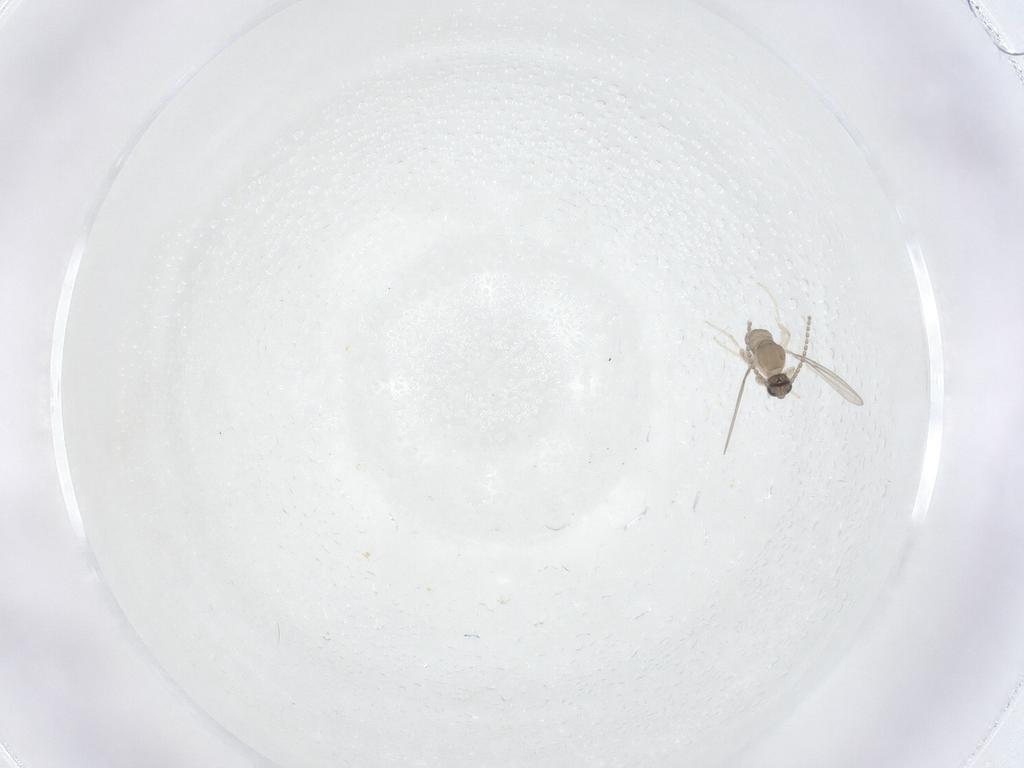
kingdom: Animalia
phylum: Arthropoda
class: Insecta
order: Diptera
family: Cecidomyiidae
